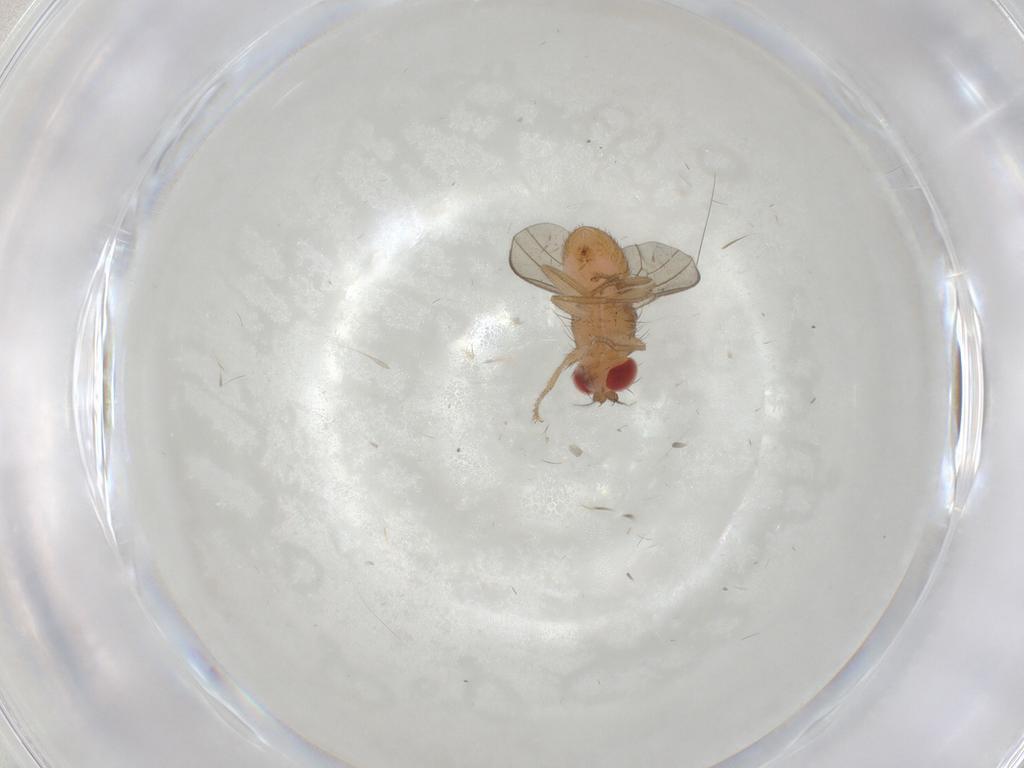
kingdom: Animalia
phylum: Arthropoda
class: Insecta
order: Diptera
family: Drosophilidae
